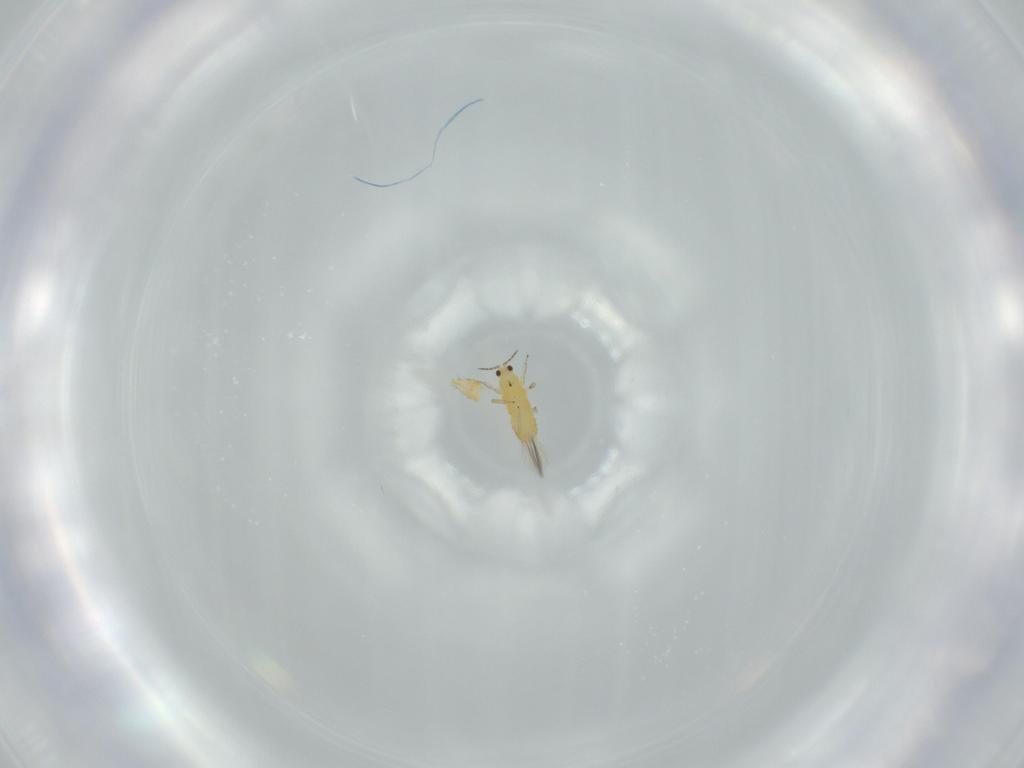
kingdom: Animalia
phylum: Arthropoda
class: Insecta
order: Thysanoptera
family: Thripidae
